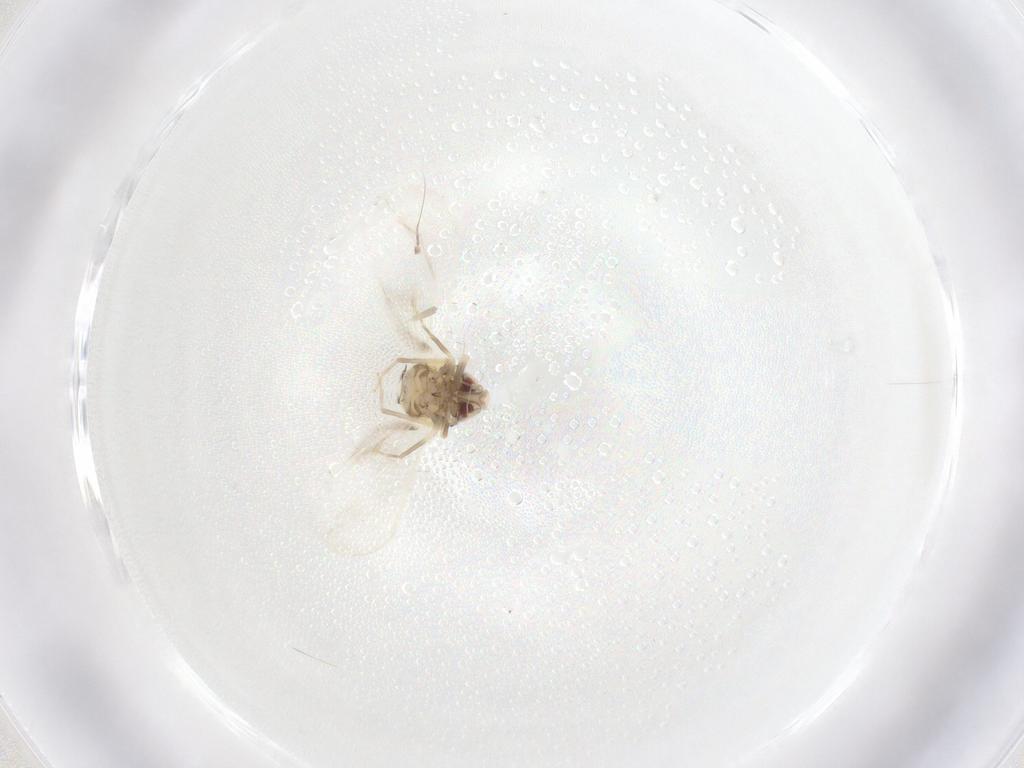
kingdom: Animalia
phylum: Arthropoda
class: Insecta
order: Hemiptera
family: Aleyrodidae
